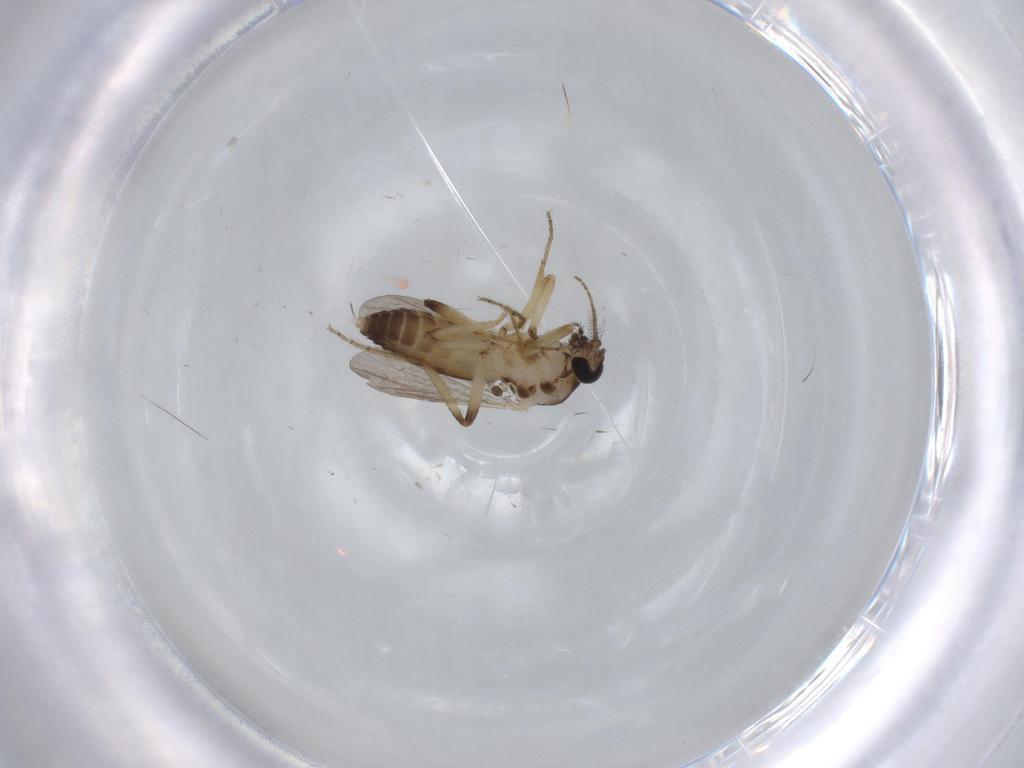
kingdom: Animalia
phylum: Arthropoda
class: Insecta
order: Diptera
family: Ceratopogonidae
